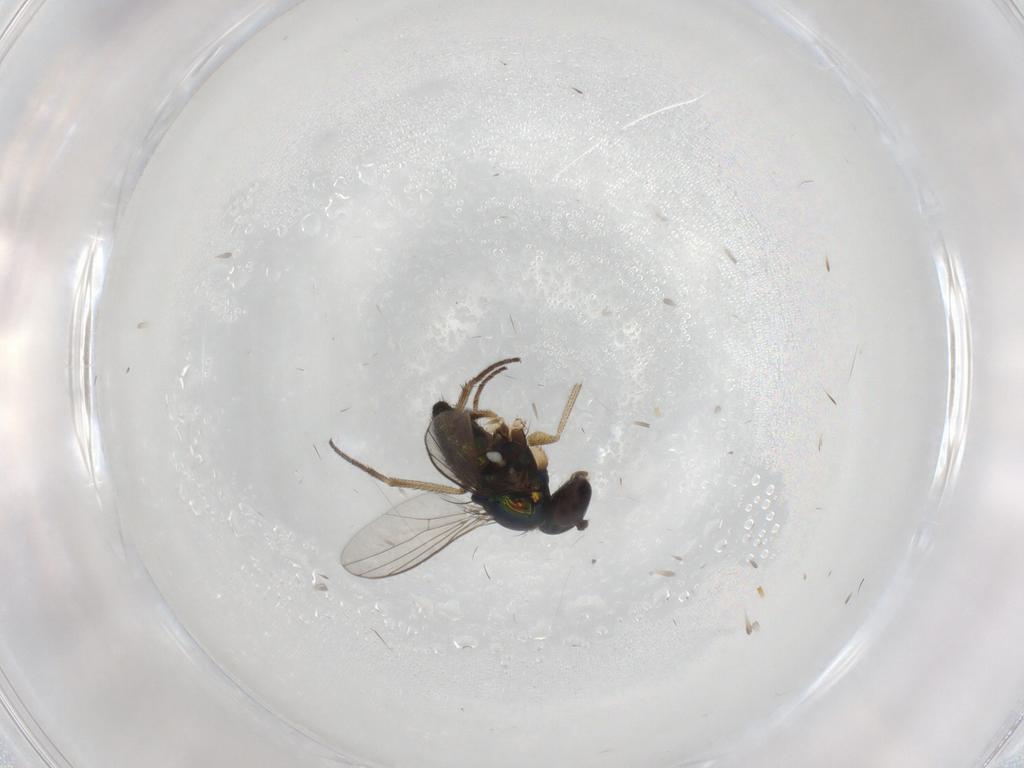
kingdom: Animalia
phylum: Arthropoda
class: Insecta
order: Diptera
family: Dolichopodidae
